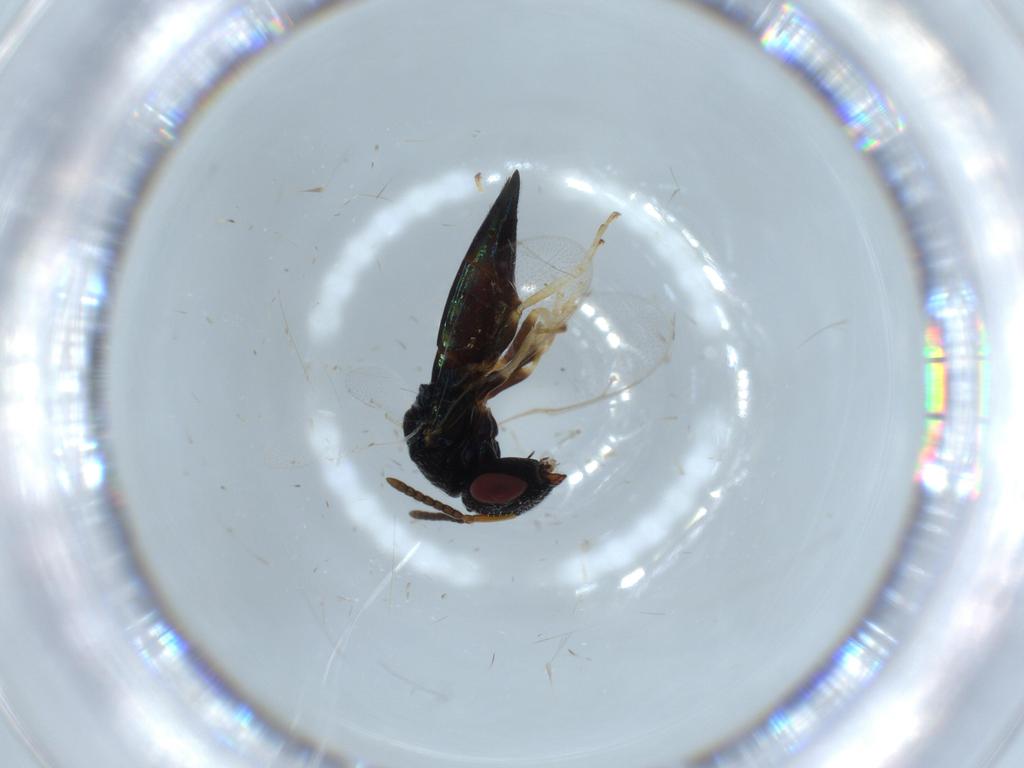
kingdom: Animalia
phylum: Arthropoda
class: Insecta
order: Hymenoptera
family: Pteromalidae
